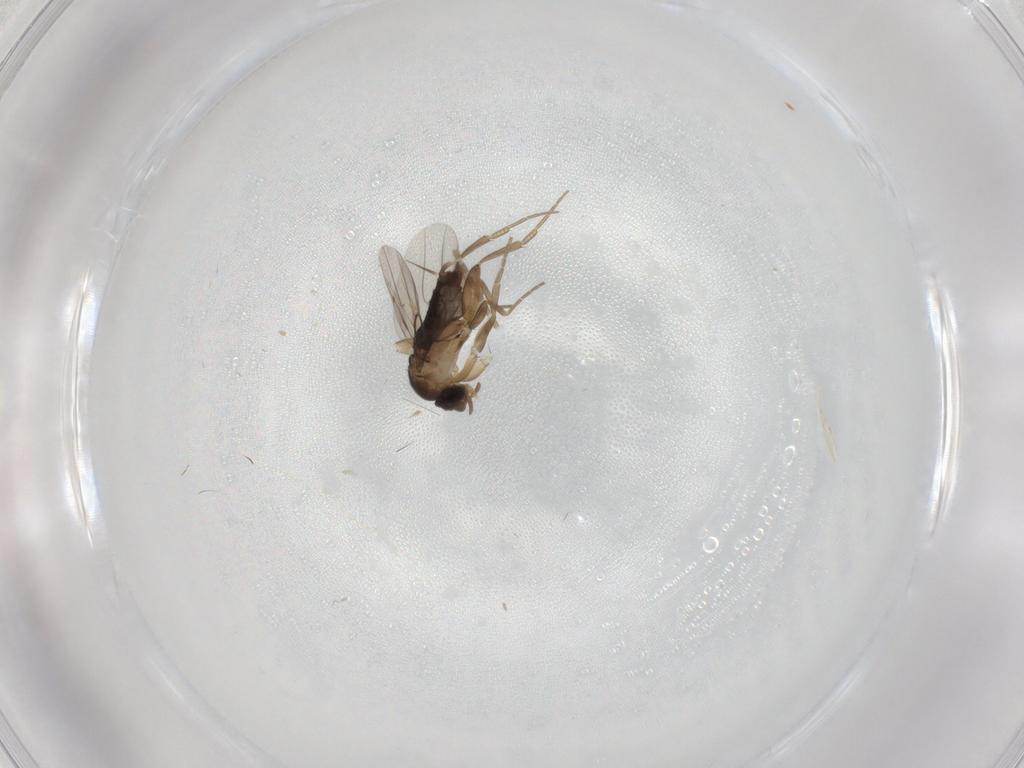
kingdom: Animalia
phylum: Arthropoda
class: Insecta
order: Diptera
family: Phoridae
